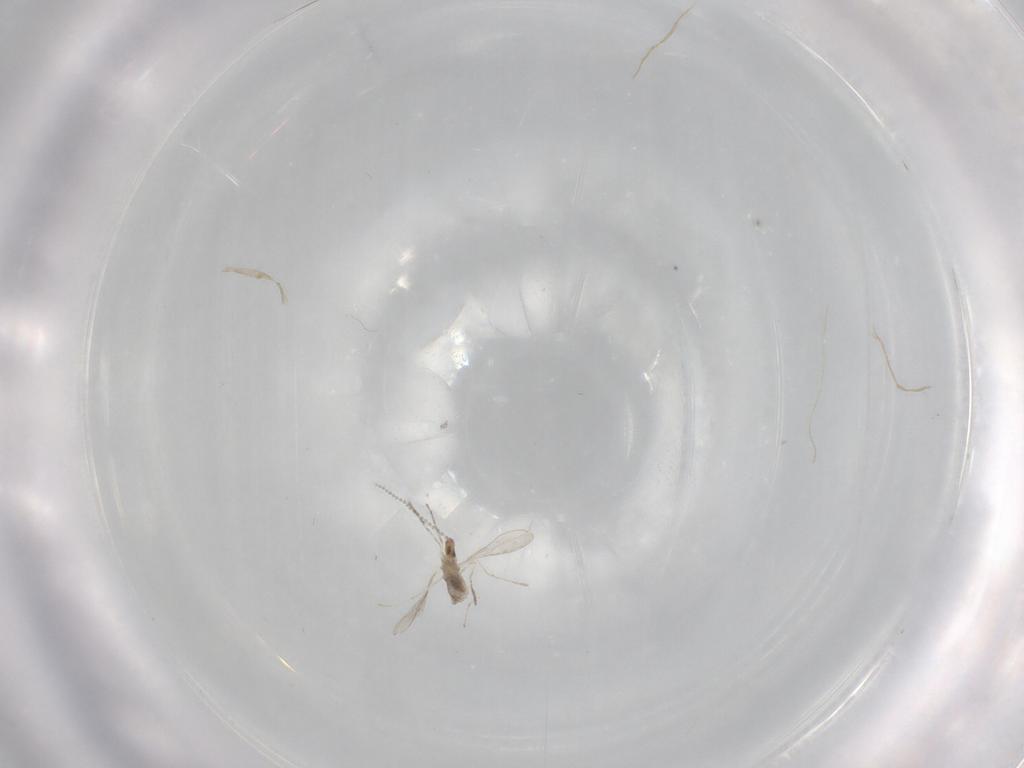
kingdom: Animalia
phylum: Arthropoda
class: Insecta
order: Diptera
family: Cecidomyiidae
